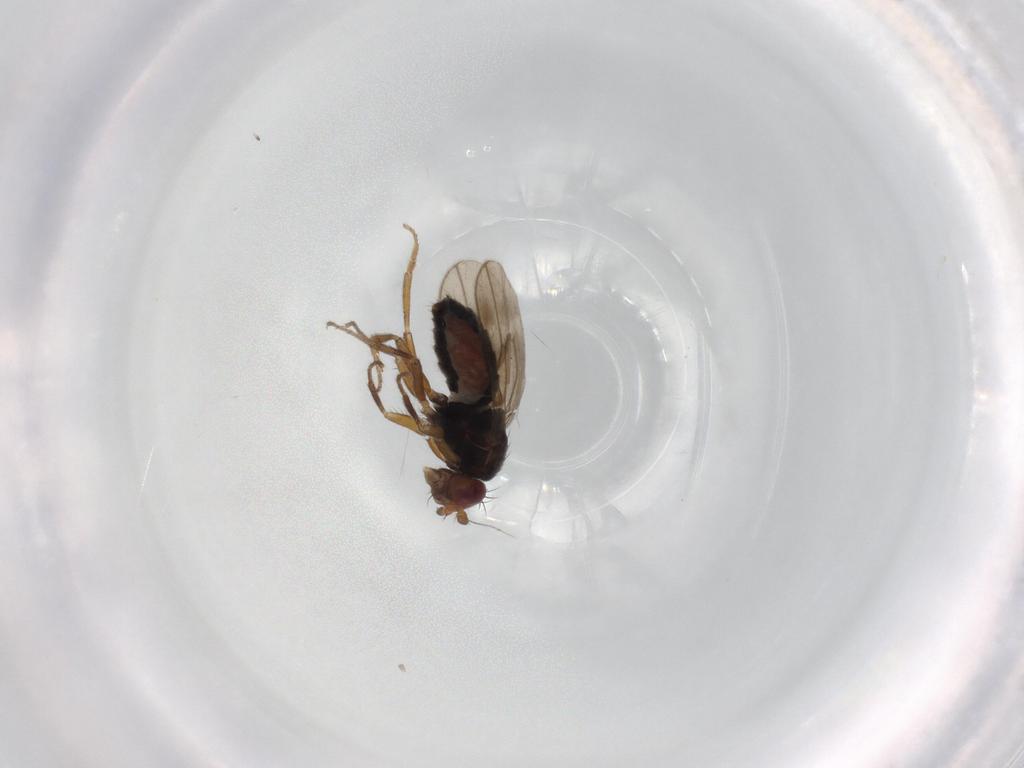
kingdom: Animalia
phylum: Arthropoda
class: Insecta
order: Diptera
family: Sphaeroceridae
